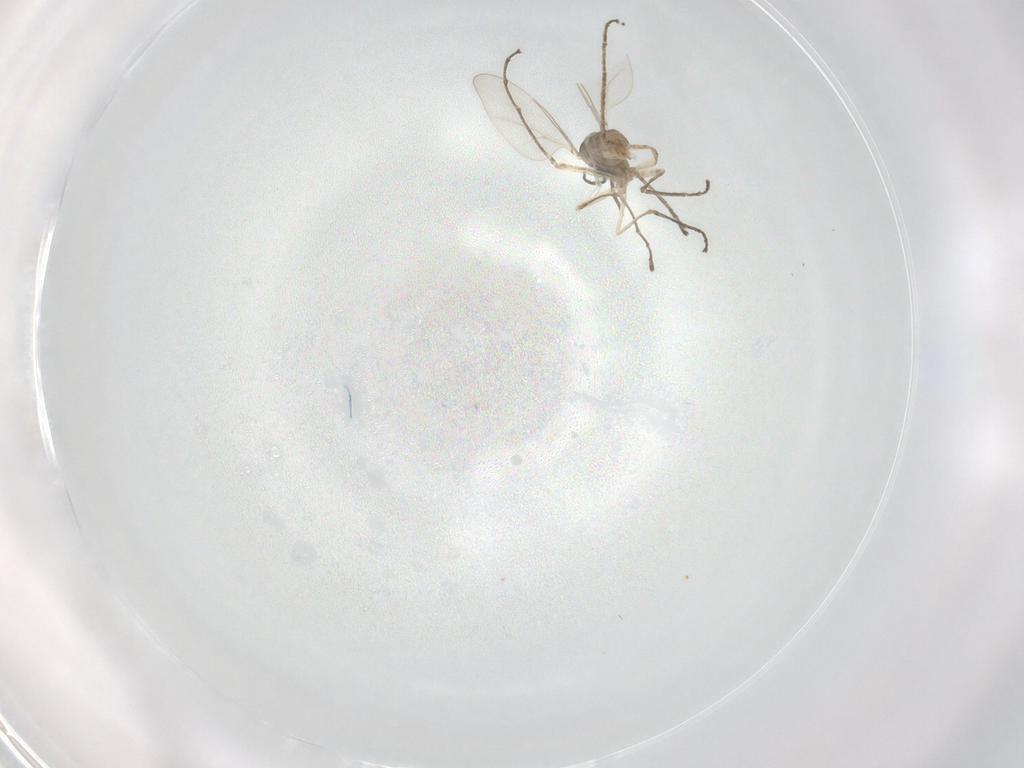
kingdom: Animalia
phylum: Arthropoda
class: Insecta
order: Diptera
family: Cecidomyiidae
